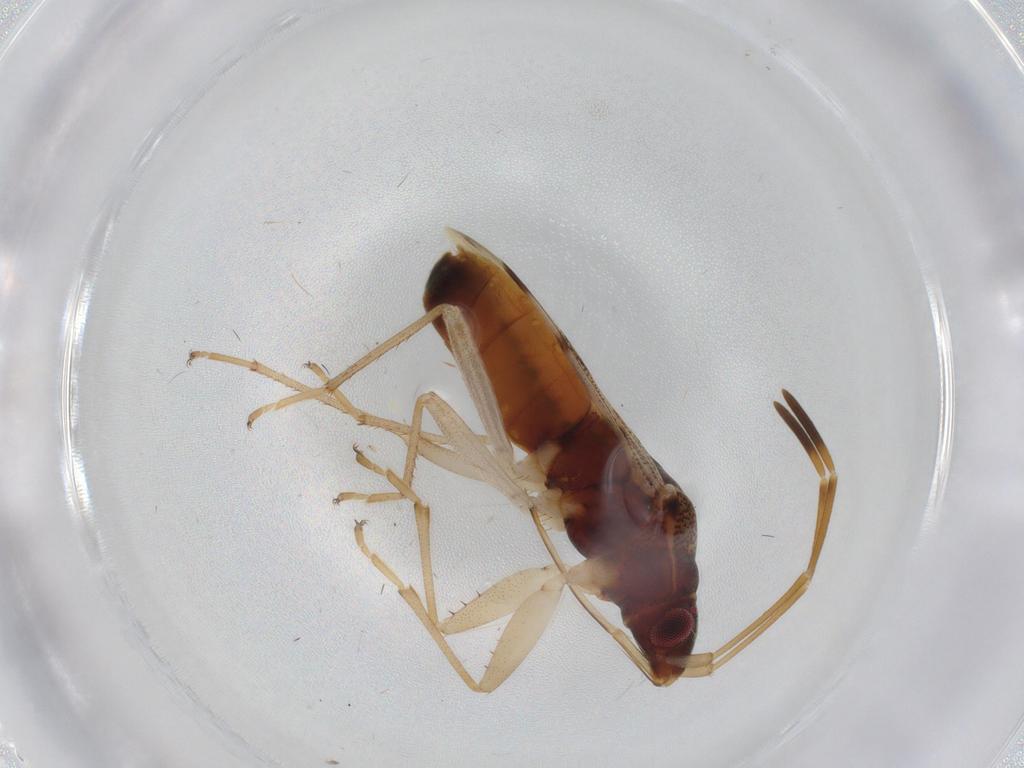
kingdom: Animalia
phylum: Arthropoda
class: Insecta
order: Hemiptera
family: Rhyparochromidae
